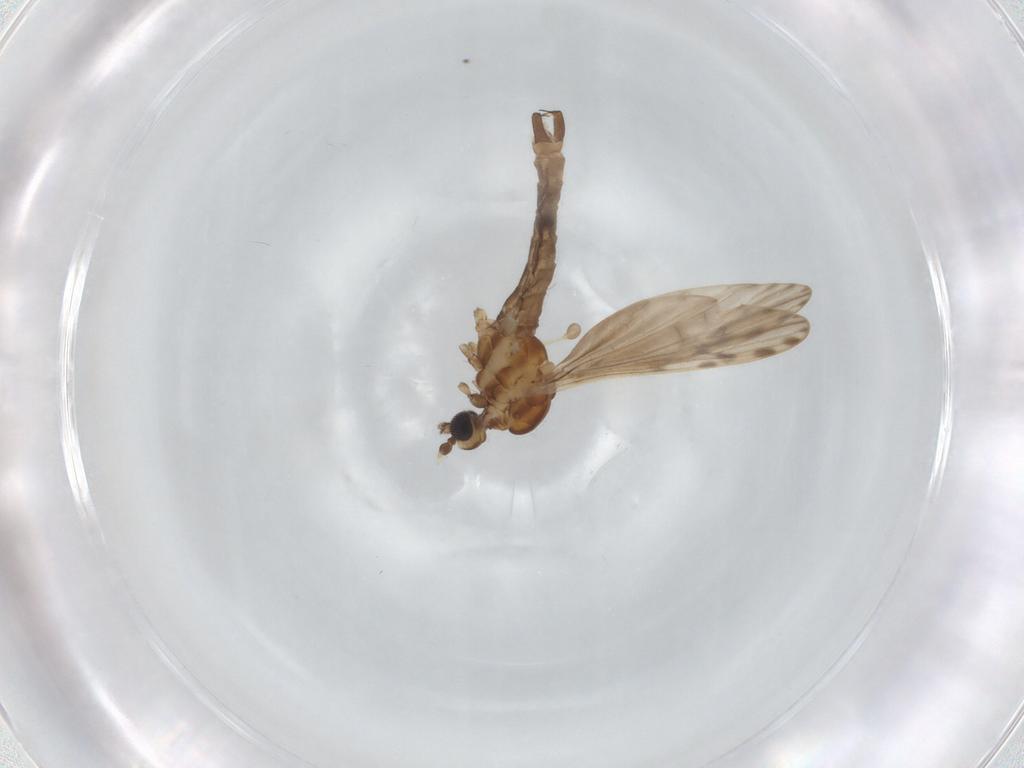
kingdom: Animalia
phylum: Arthropoda
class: Insecta
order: Diptera
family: Limoniidae
